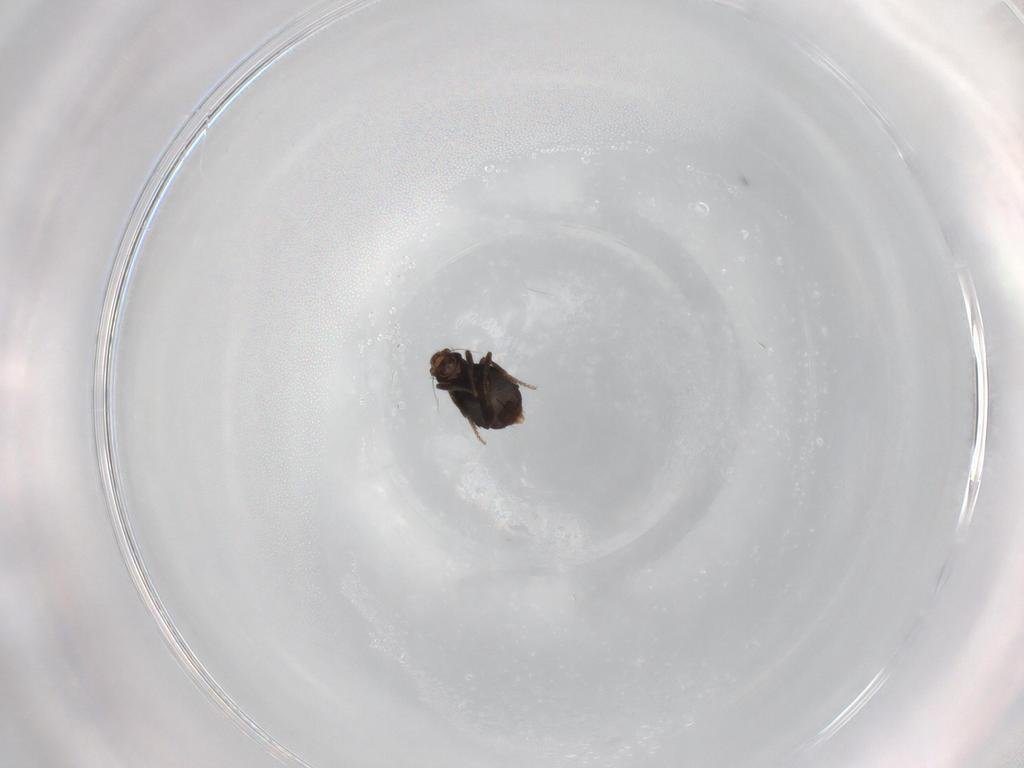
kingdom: Animalia
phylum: Arthropoda
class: Insecta
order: Diptera
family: Phoridae
